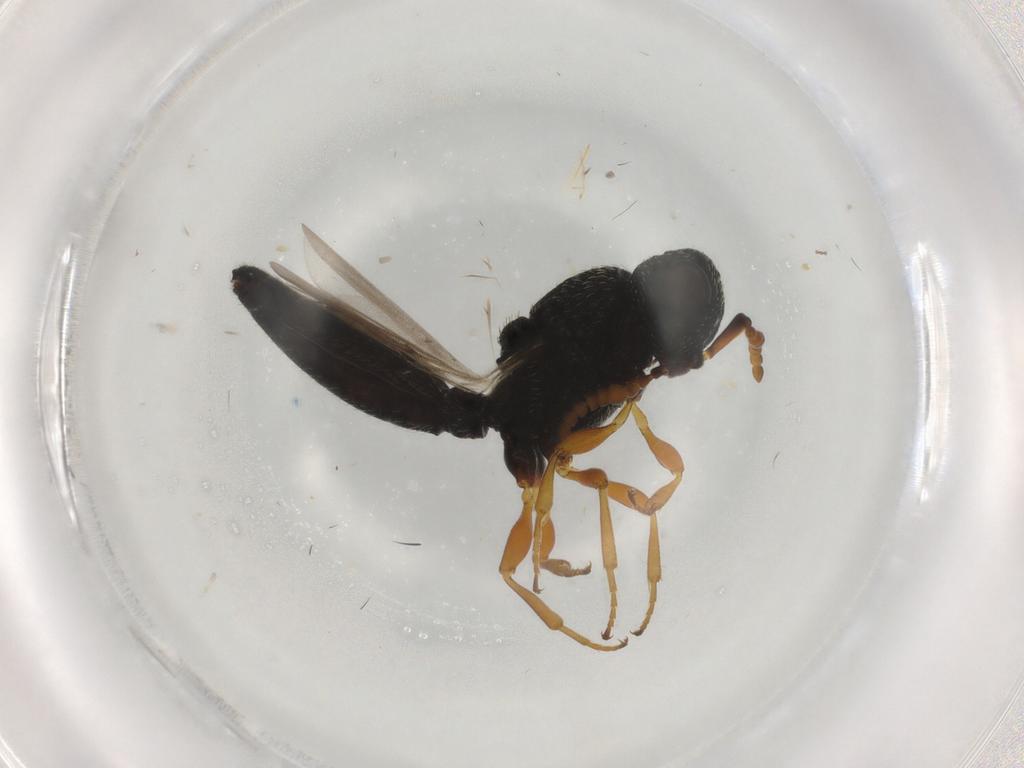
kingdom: Animalia
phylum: Arthropoda
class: Insecta
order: Hymenoptera
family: Scelionidae
